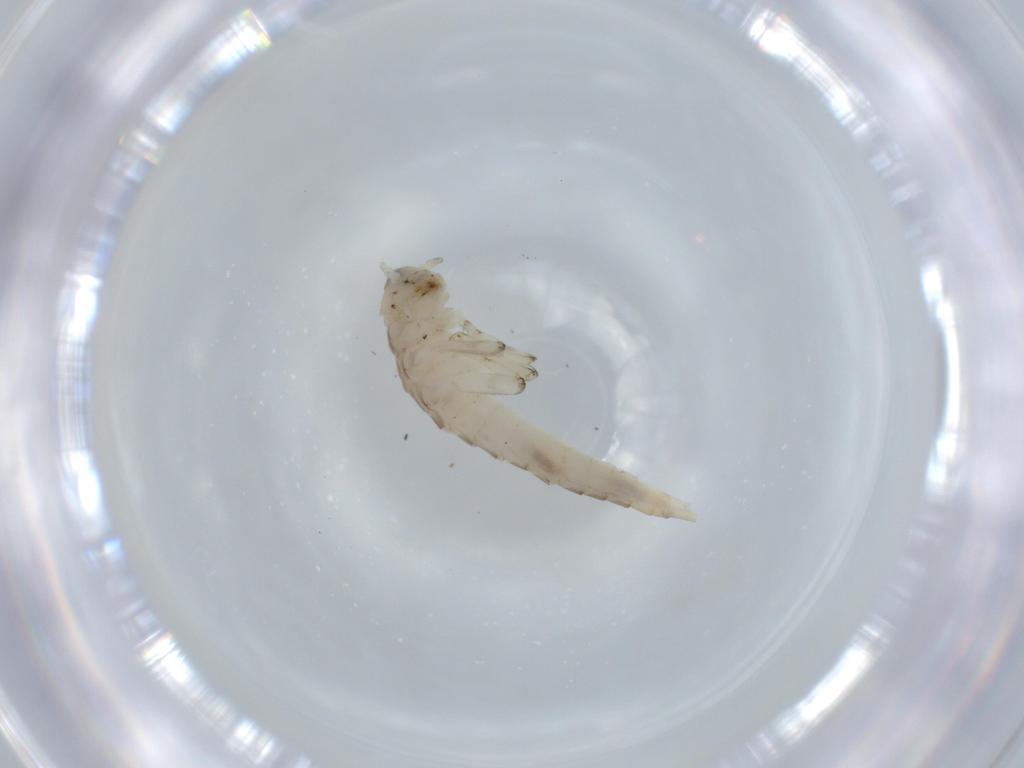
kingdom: Animalia
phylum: Arthropoda
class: Insecta
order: Ephemeroptera
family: Baetidae
